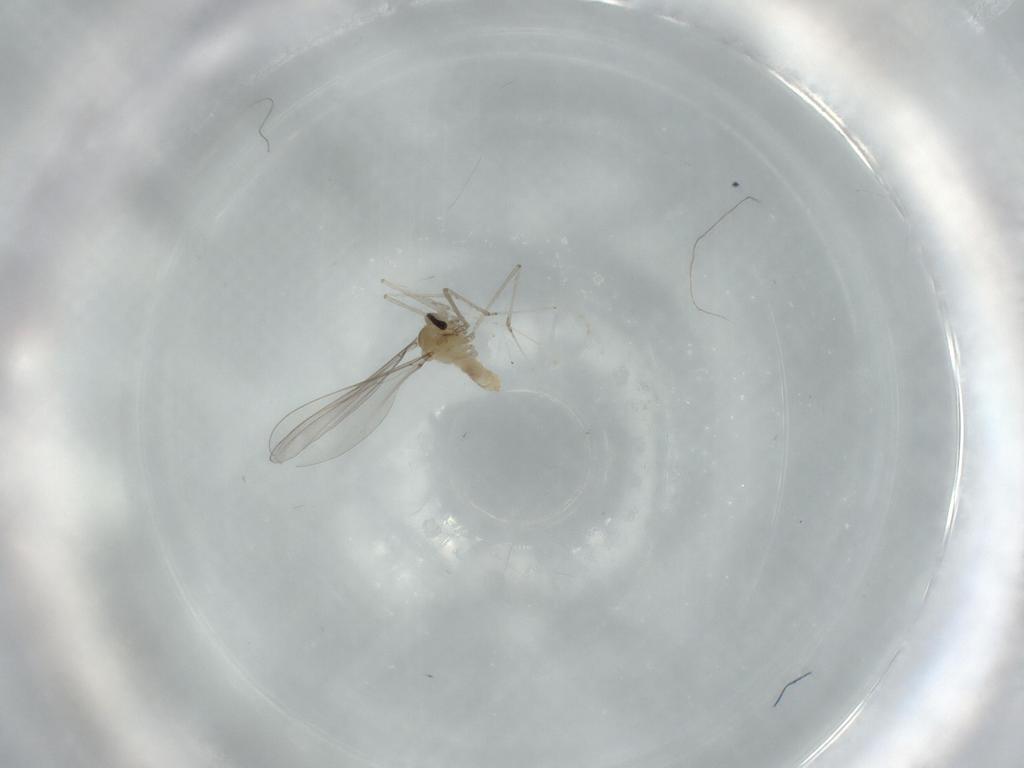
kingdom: Animalia
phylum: Arthropoda
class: Insecta
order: Diptera
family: Cecidomyiidae
